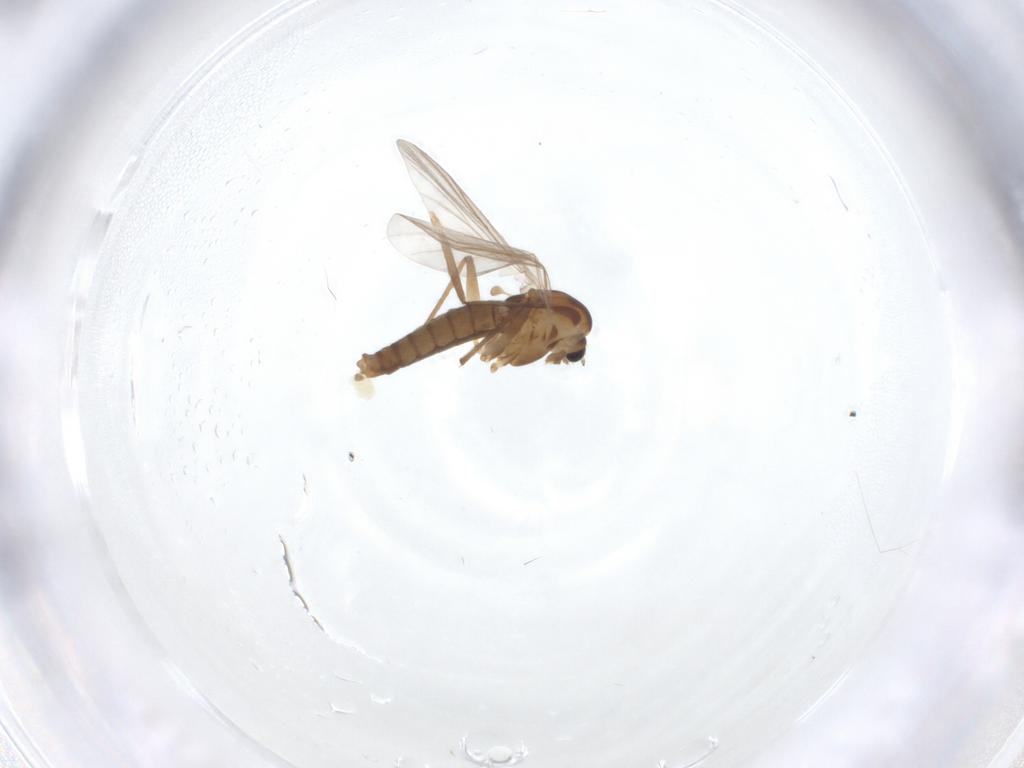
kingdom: Animalia
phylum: Arthropoda
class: Insecta
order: Diptera
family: Chironomidae
